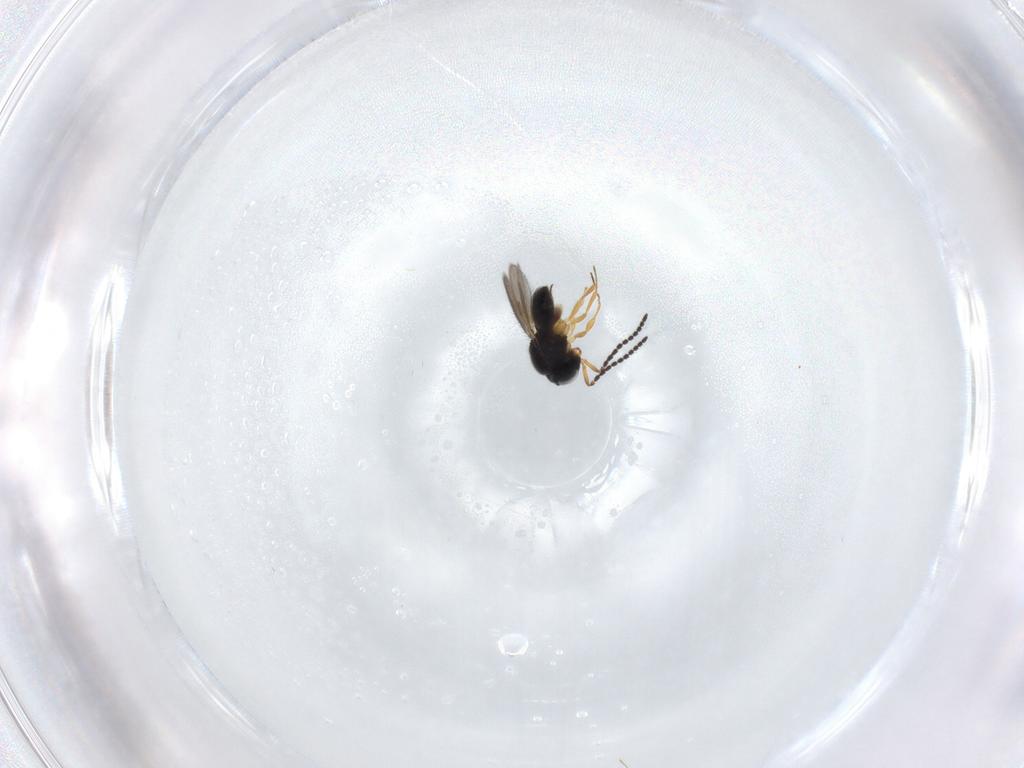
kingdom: Animalia
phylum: Arthropoda
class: Insecta
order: Hymenoptera
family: Scelionidae
